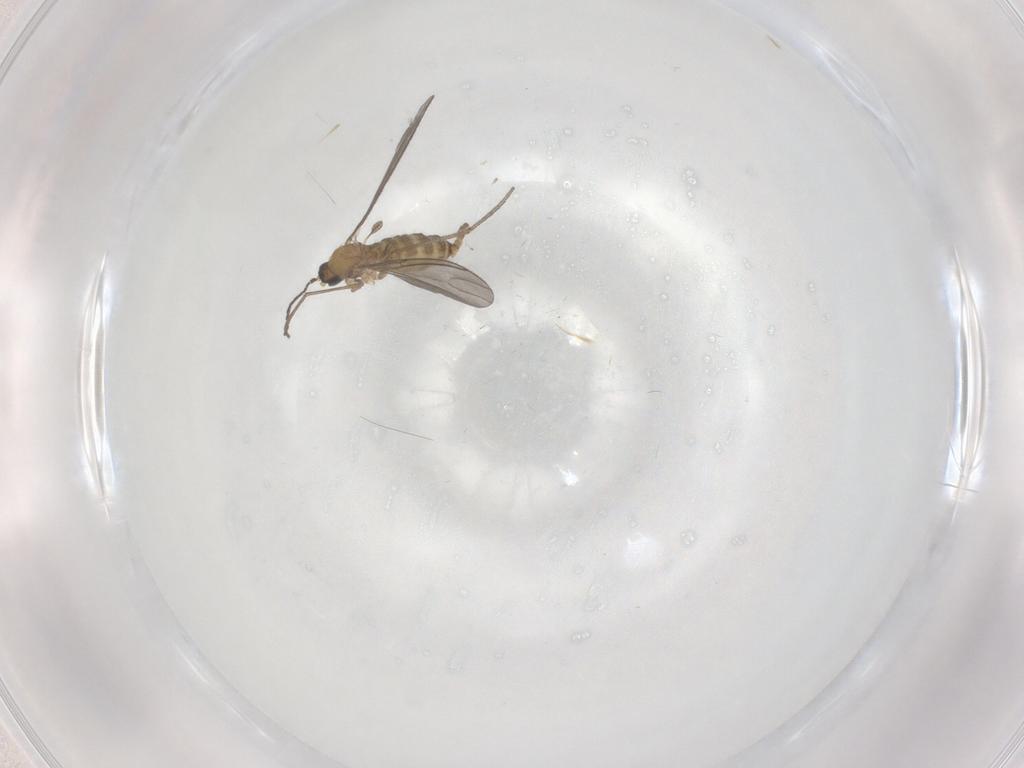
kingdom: Animalia
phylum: Arthropoda
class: Insecta
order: Diptera
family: Sciaridae
